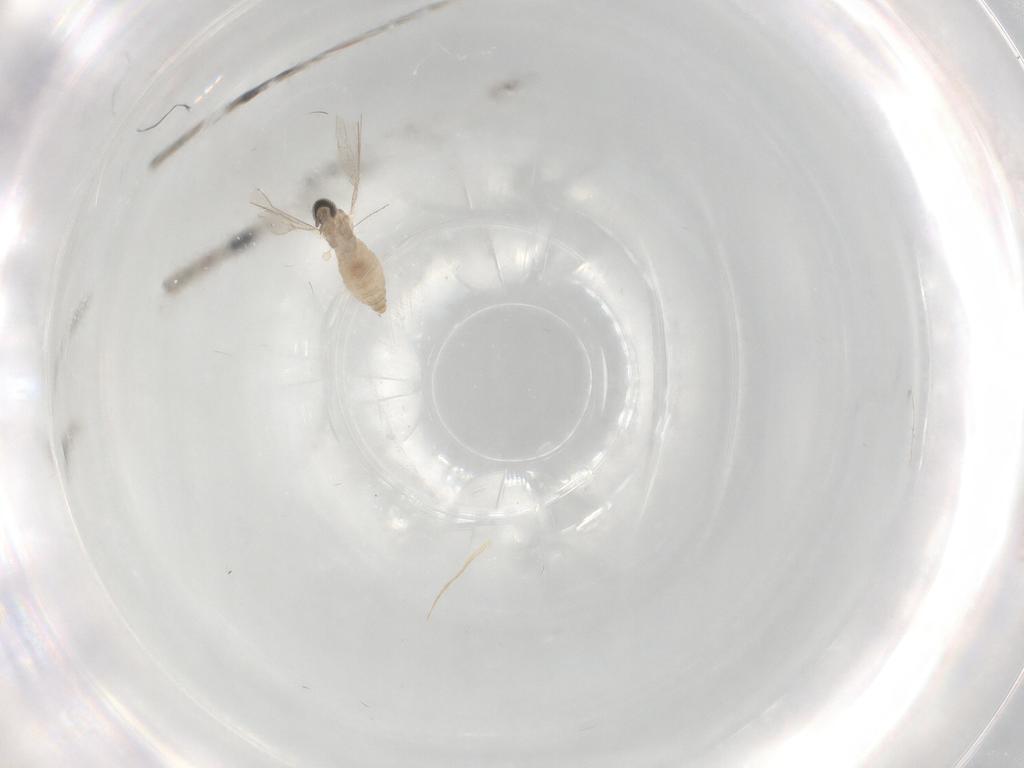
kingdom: Animalia
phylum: Arthropoda
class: Insecta
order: Diptera
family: Cecidomyiidae
